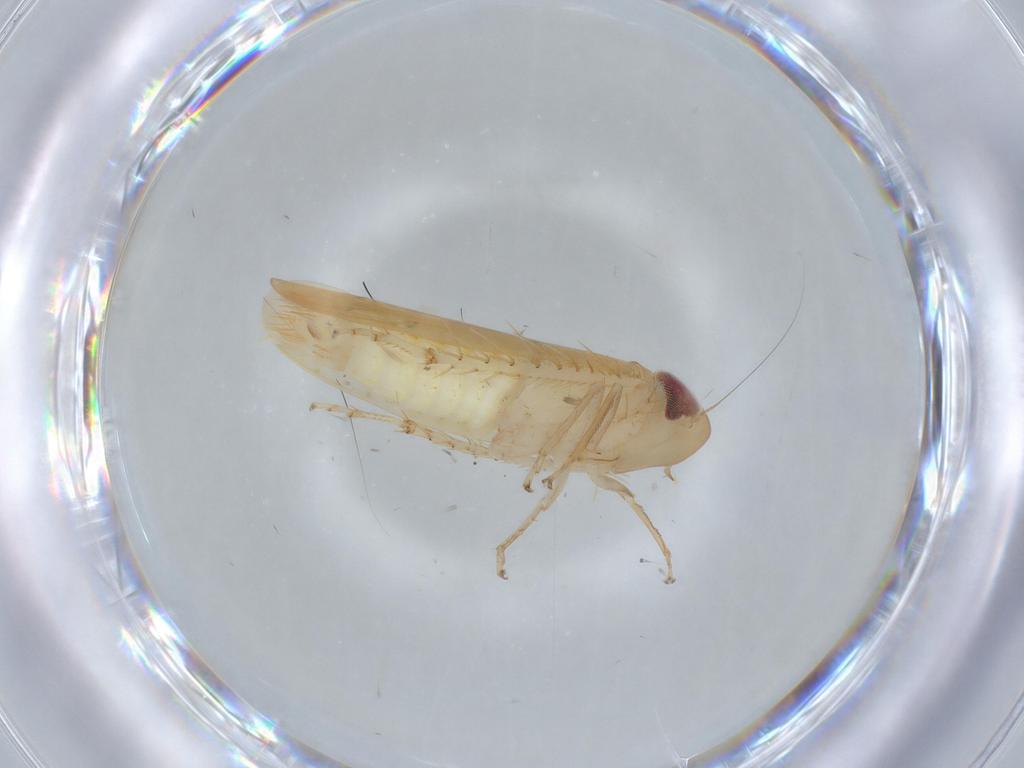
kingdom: Animalia
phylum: Arthropoda
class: Insecta
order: Hemiptera
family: Cicadellidae
